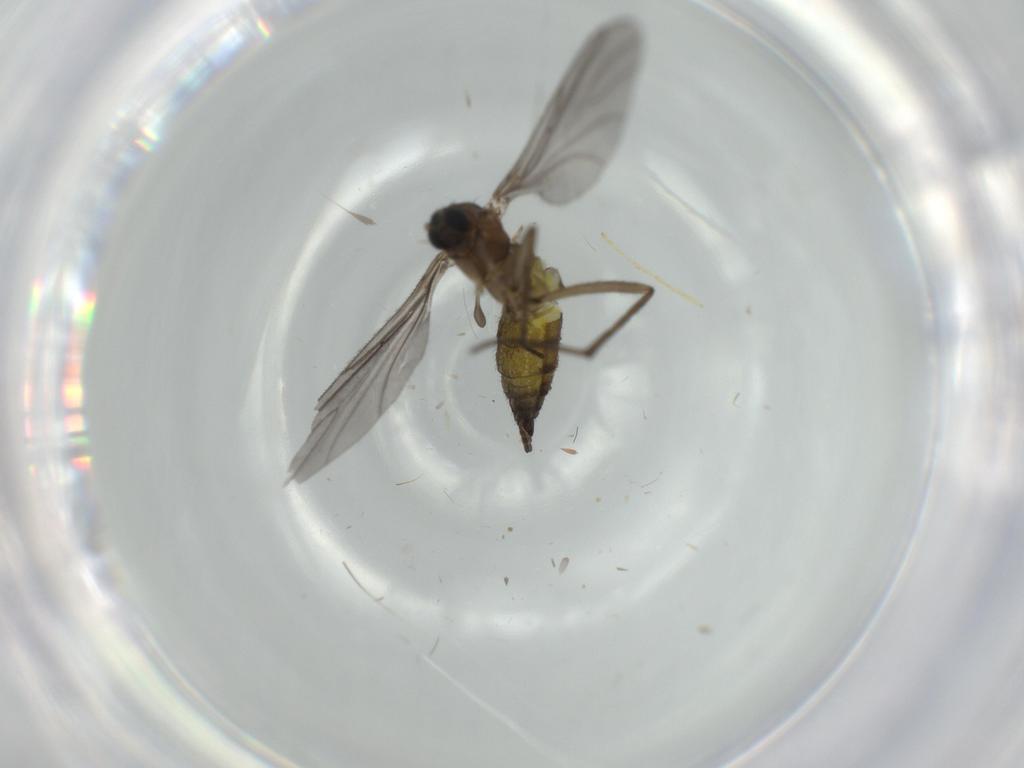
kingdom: Animalia
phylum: Arthropoda
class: Insecta
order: Diptera
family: Sciaridae
